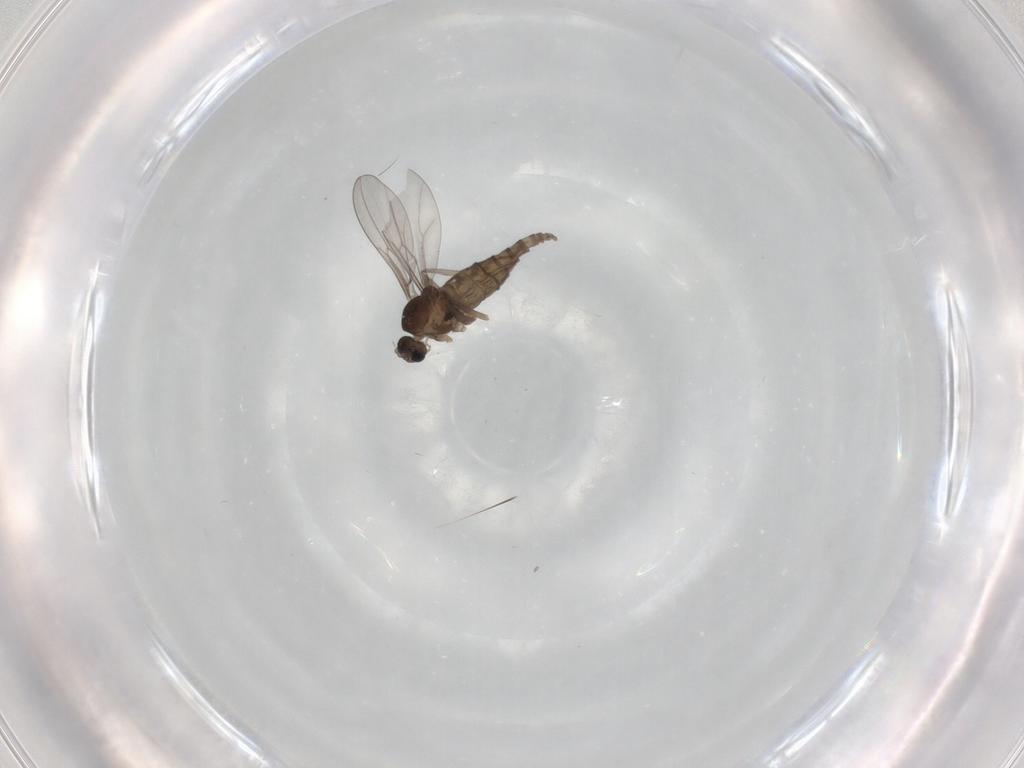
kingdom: Animalia
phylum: Arthropoda
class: Insecta
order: Diptera
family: Cecidomyiidae
